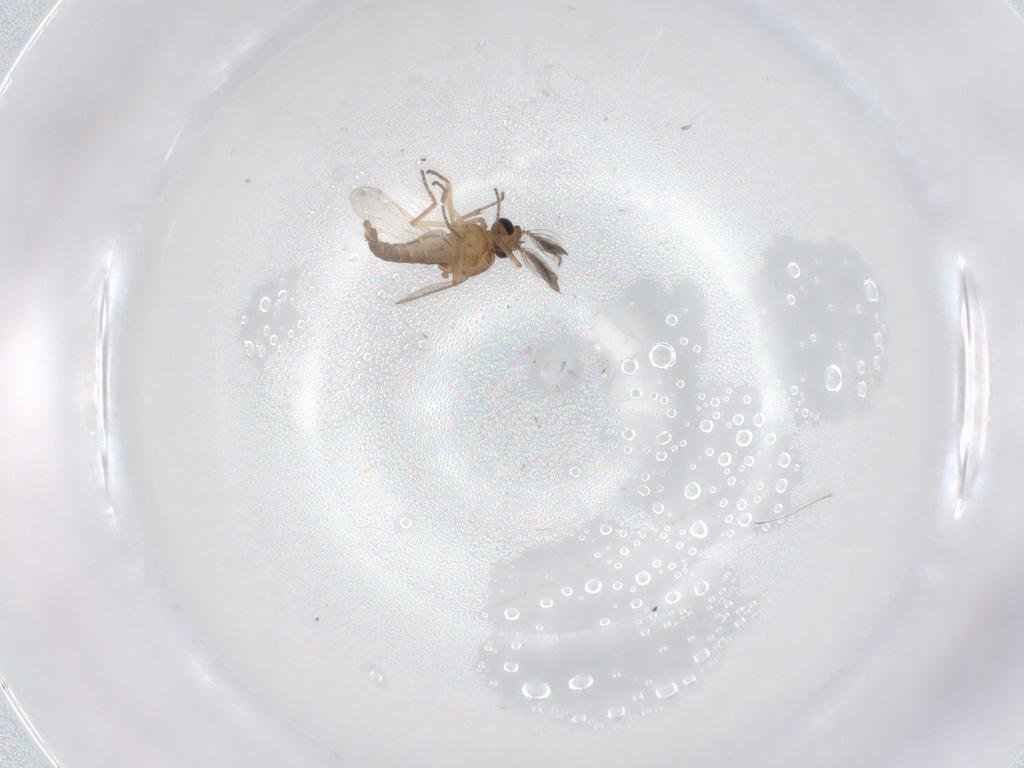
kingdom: Animalia
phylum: Arthropoda
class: Insecta
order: Diptera
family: Ceratopogonidae
